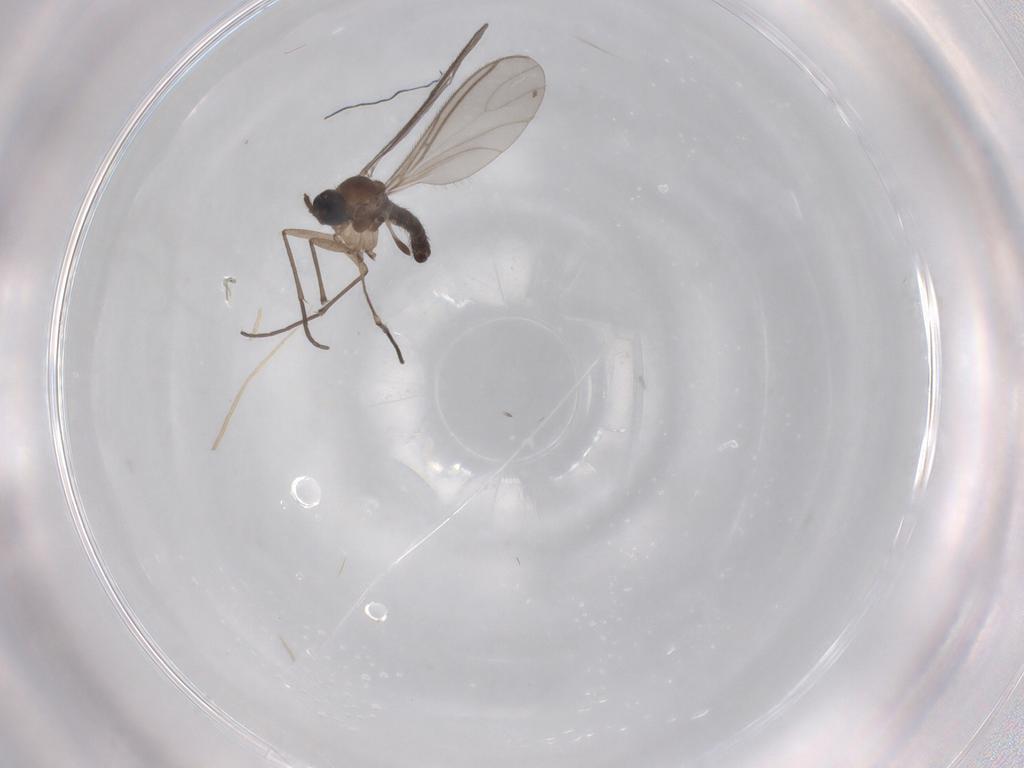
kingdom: Animalia
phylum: Arthropoda
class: Insecta
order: Diptera
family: Sciaridae
